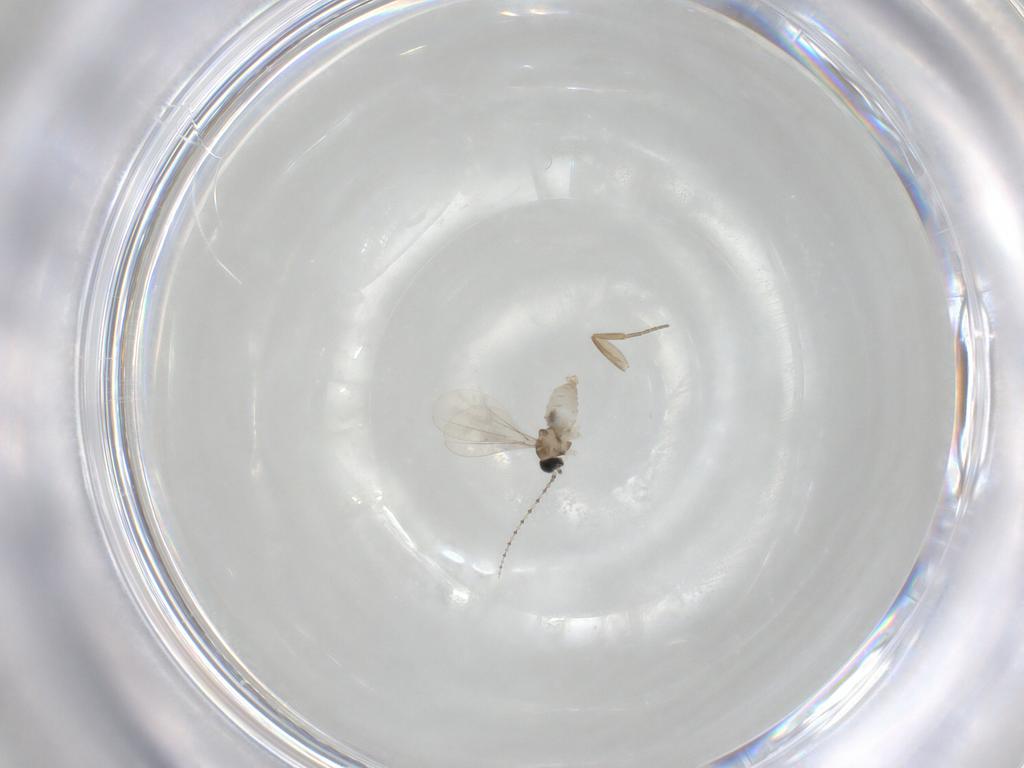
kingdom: Animalia
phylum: Arthropoda
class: Insecta
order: Diptera
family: Cecidomyiidae
